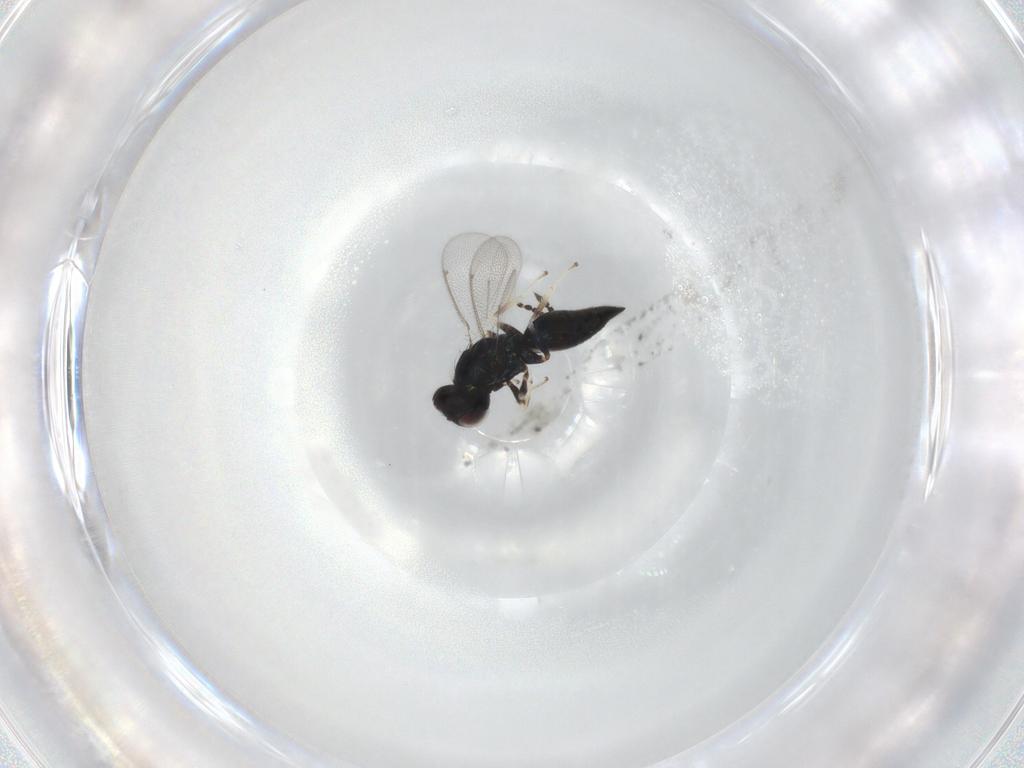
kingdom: Animalia
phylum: Arthropoda
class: Insecta
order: Hymenoptera
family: Eulophidae
